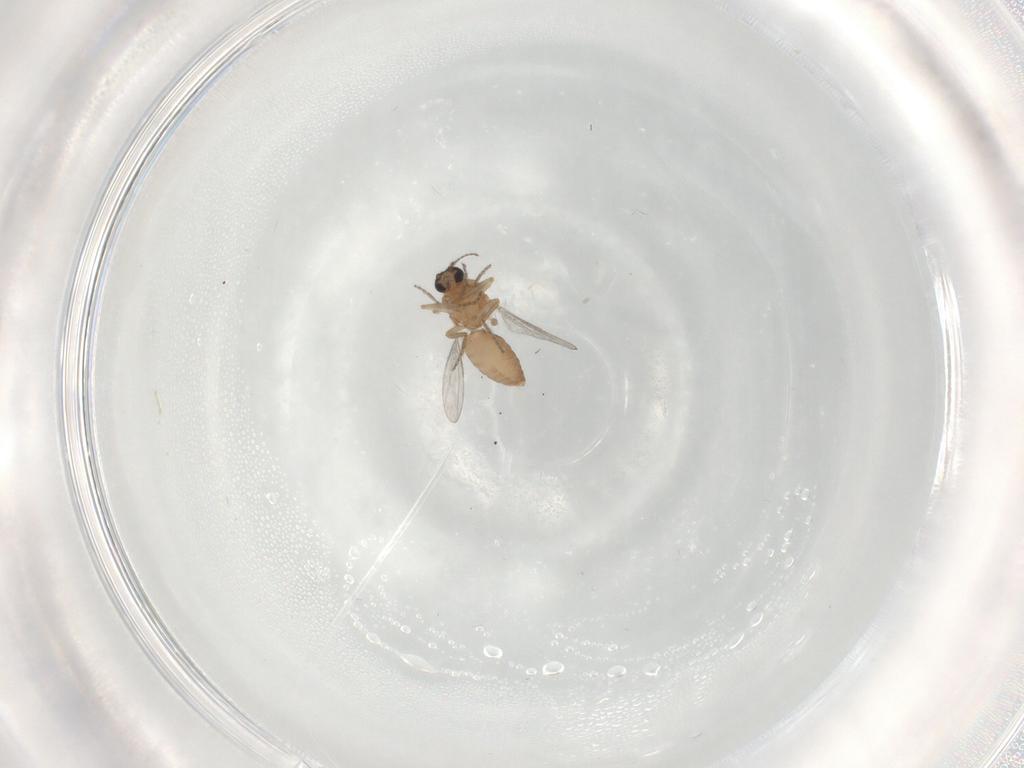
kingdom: Animalia
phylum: Arthropoda
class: Insecta
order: Diptera
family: Ceratopogonidae
